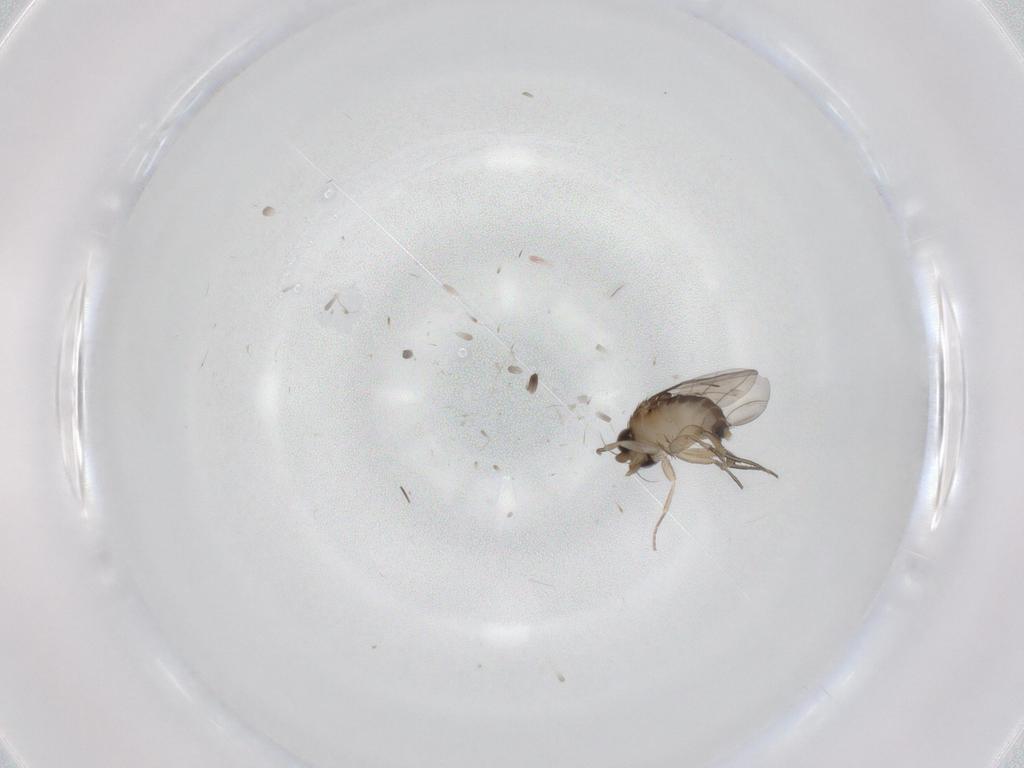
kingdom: Animalia
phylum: Arthropoda
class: Insecta
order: Diptera
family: Phoridae
